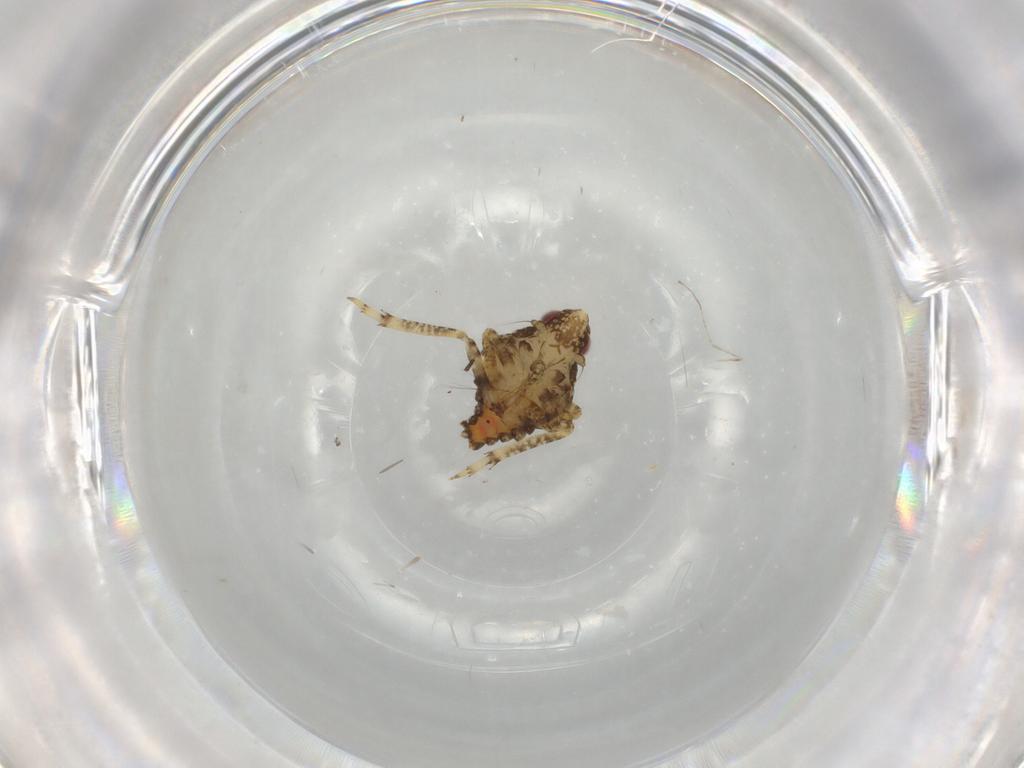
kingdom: Animalia
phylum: Arthropoda
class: Insecta
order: Hemiptera
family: Issidae
